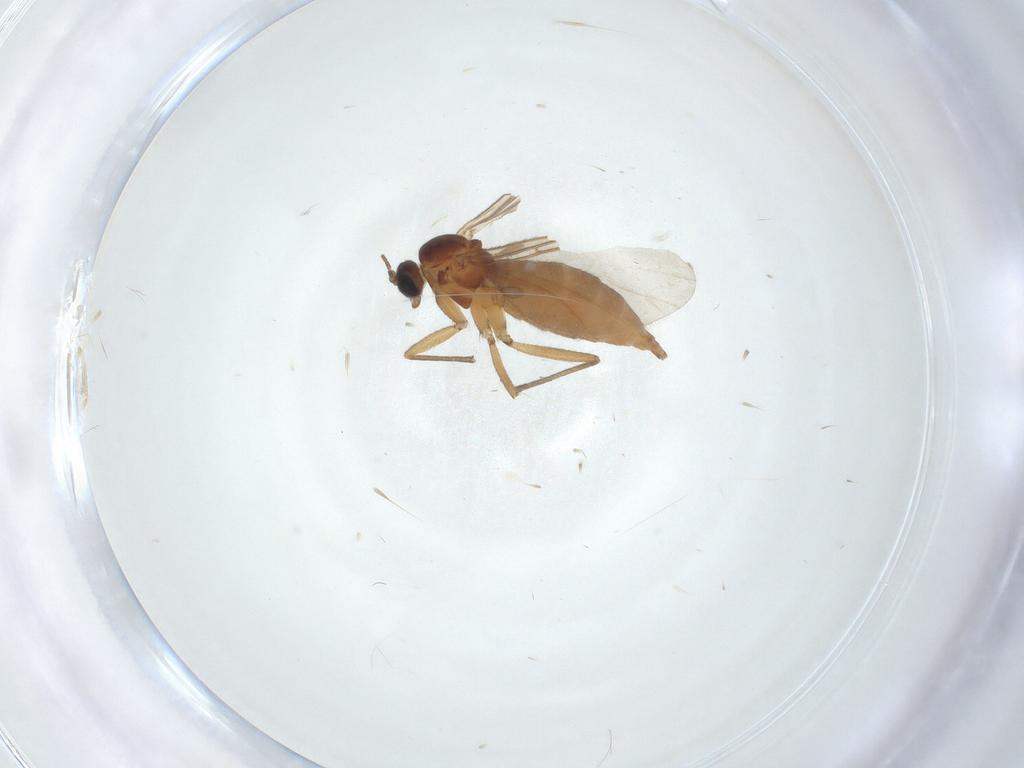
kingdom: Animalia
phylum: Arthropoda
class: Insecta
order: Diptera
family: Sciaridae
